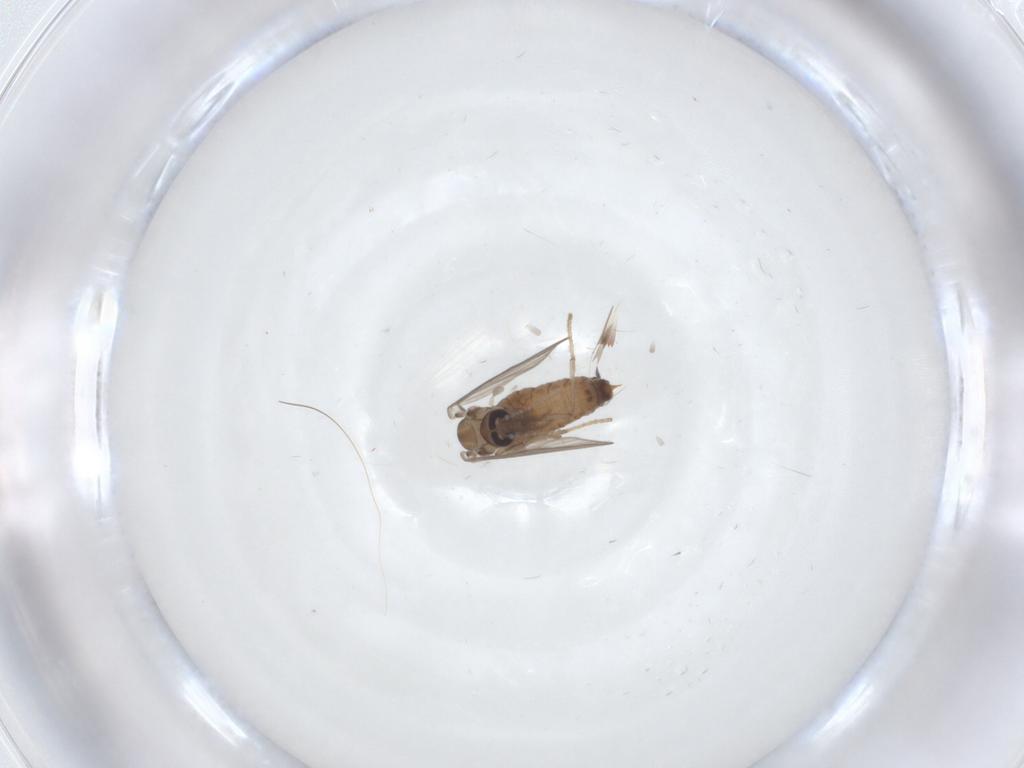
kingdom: Animalia
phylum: Arthropoda
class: Insecta
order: Diptera
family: Psychodidae
